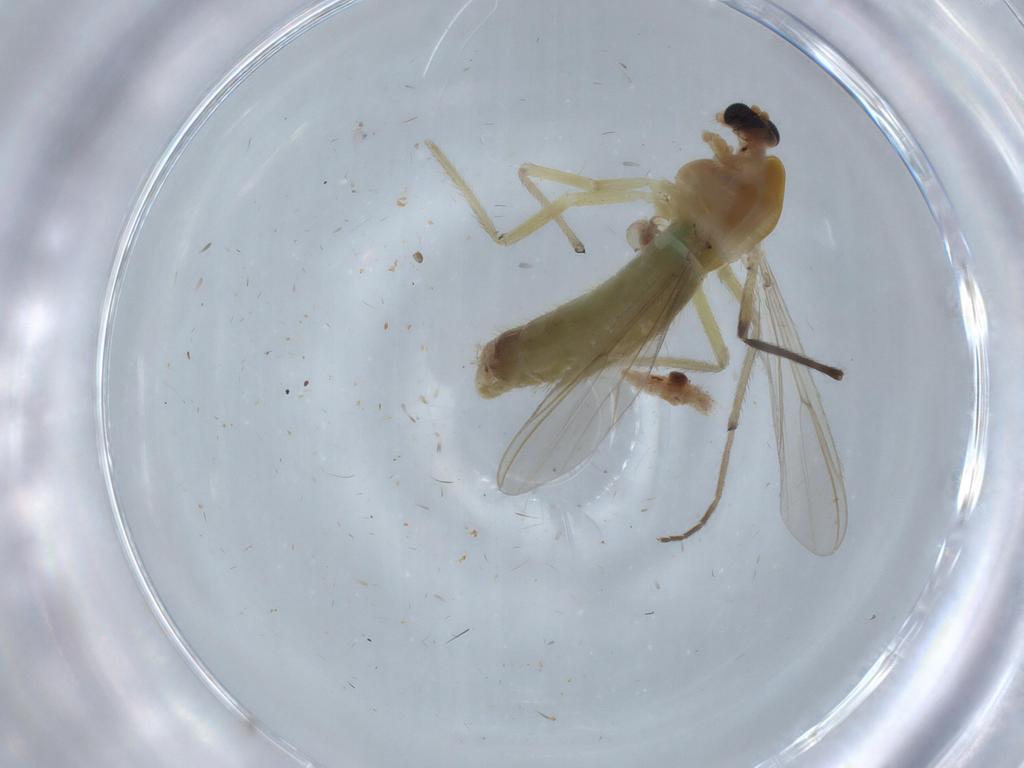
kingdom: Animalia
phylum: Arthropoda
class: Insecta
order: Diptera
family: Chironomidae
